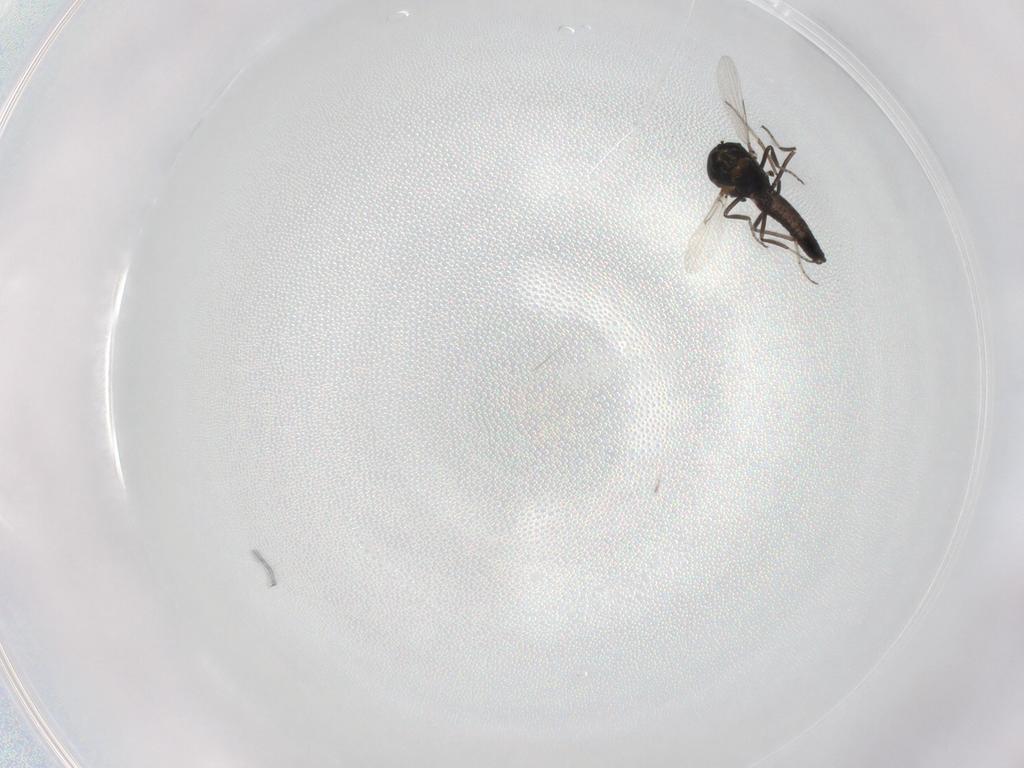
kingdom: Animalia
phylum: Arthropoda
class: Insecta
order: Diptera
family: Ceratopogonidae
